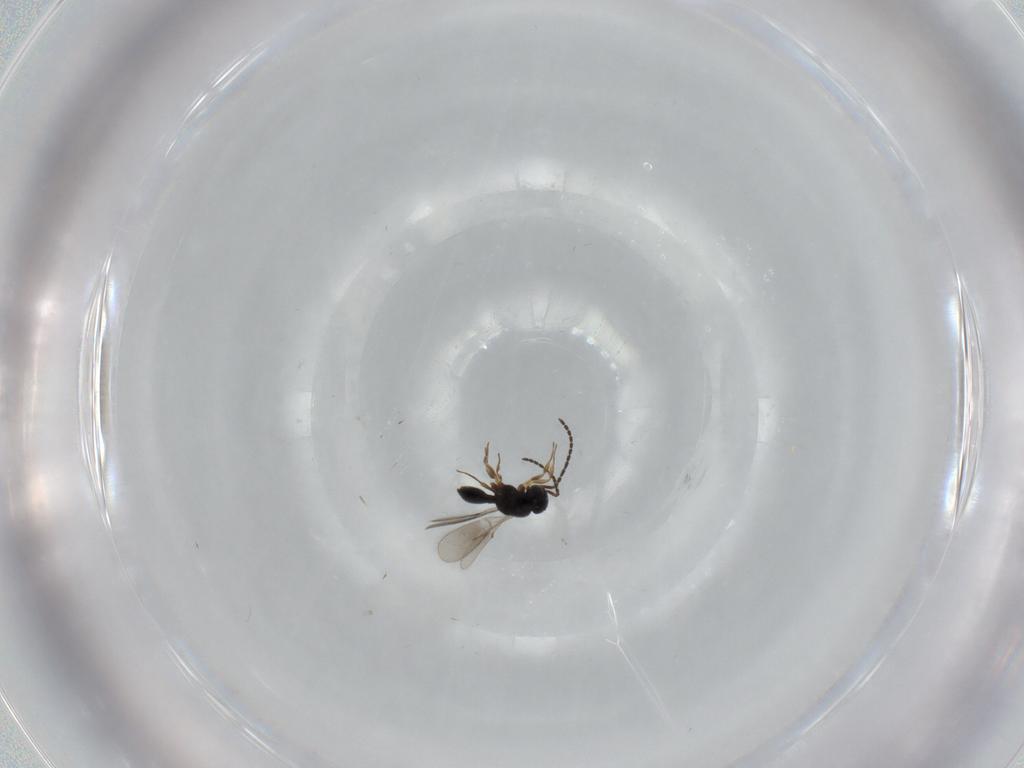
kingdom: Animalia
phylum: Arthropoda
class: Insecta
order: Hymenoptera
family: Scelionidae
